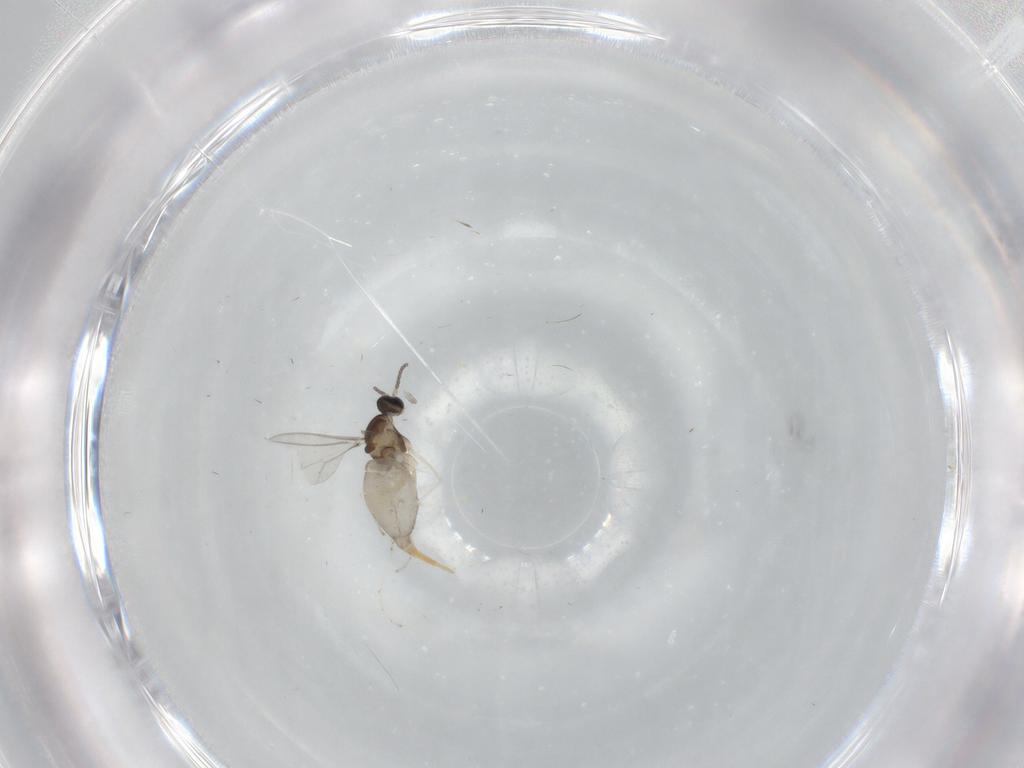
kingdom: Animalia
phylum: Arthropoda
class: Insecta
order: Diptera
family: Cecidomyiidae
